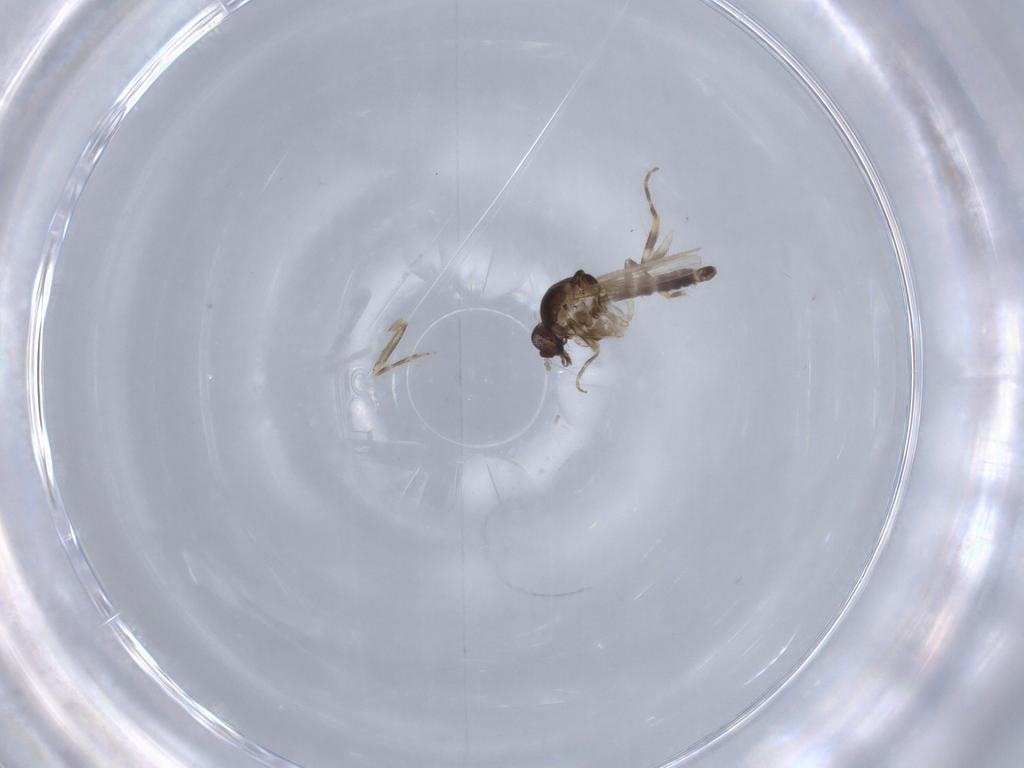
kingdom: Animalia
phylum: Arthropoda
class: Insecta
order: Diptera
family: Ceratopogonidae
